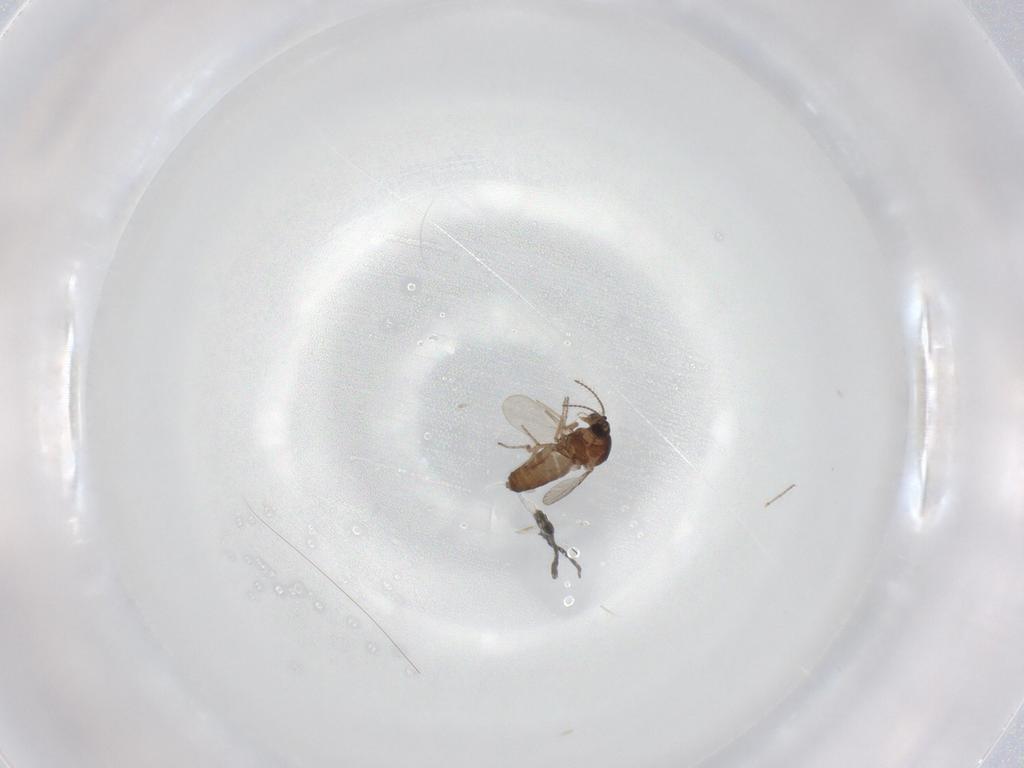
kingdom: Animalia
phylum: Arthropoda
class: Insecta
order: Diptera
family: Ceratopogonidae
